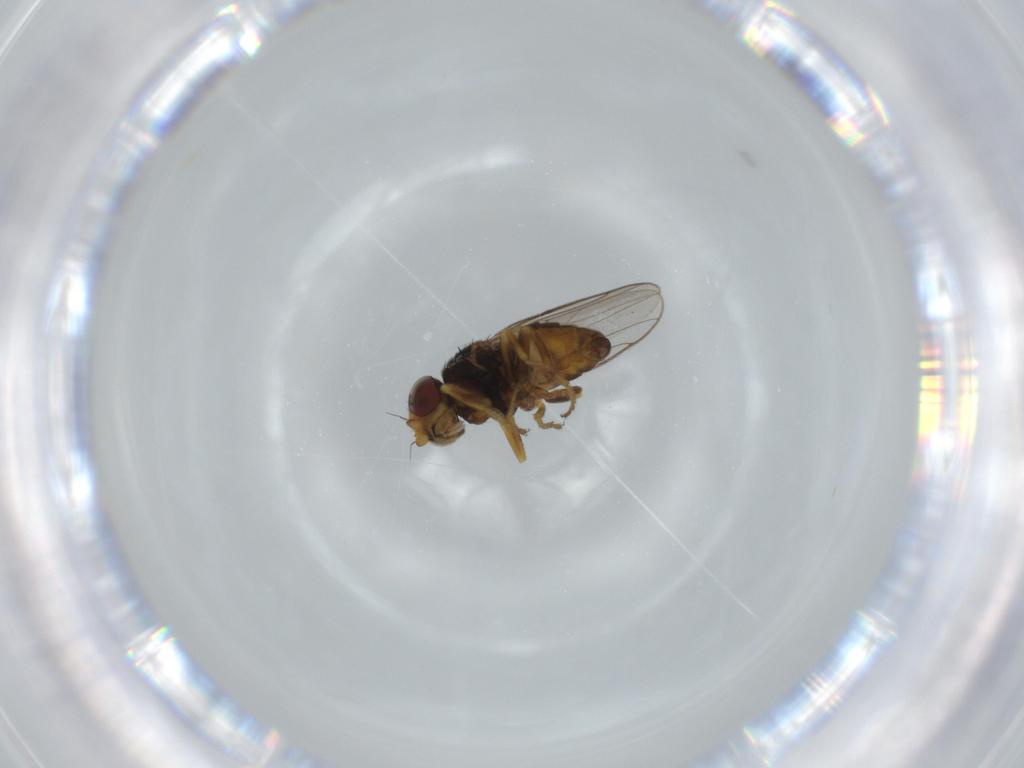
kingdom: Animalia
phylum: Arthropoda
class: Insecta
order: Diptera
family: Chloropidae
